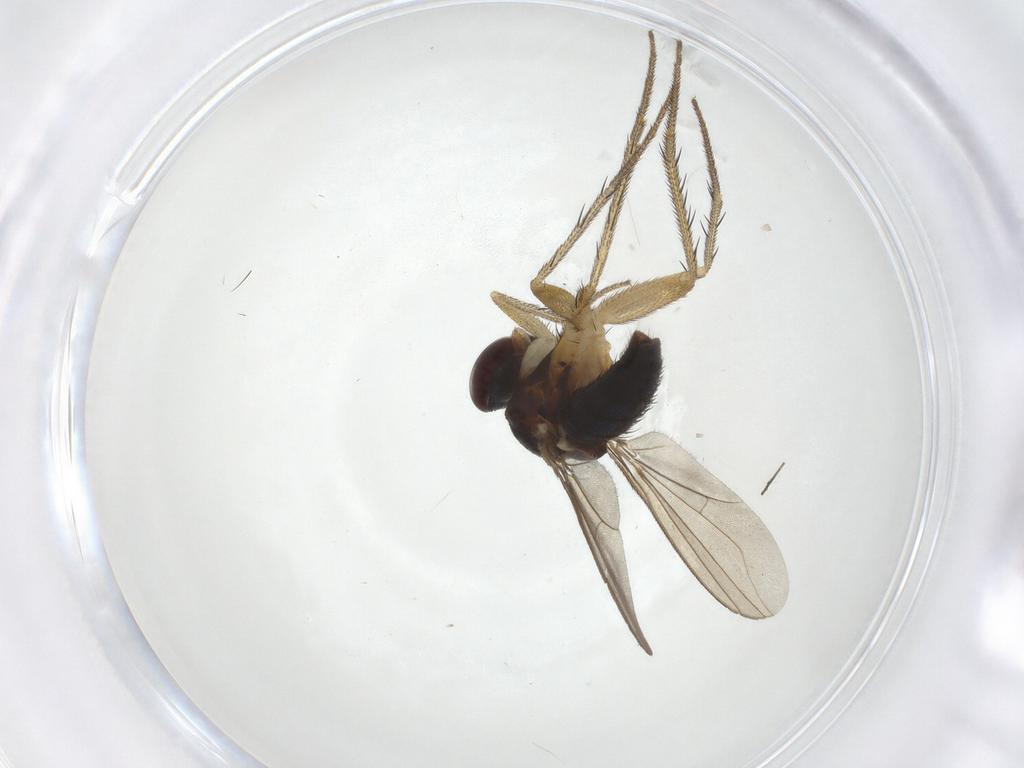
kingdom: Animalia
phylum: Arthropoda
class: Insecta
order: Diptera
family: Dolichopodidae
